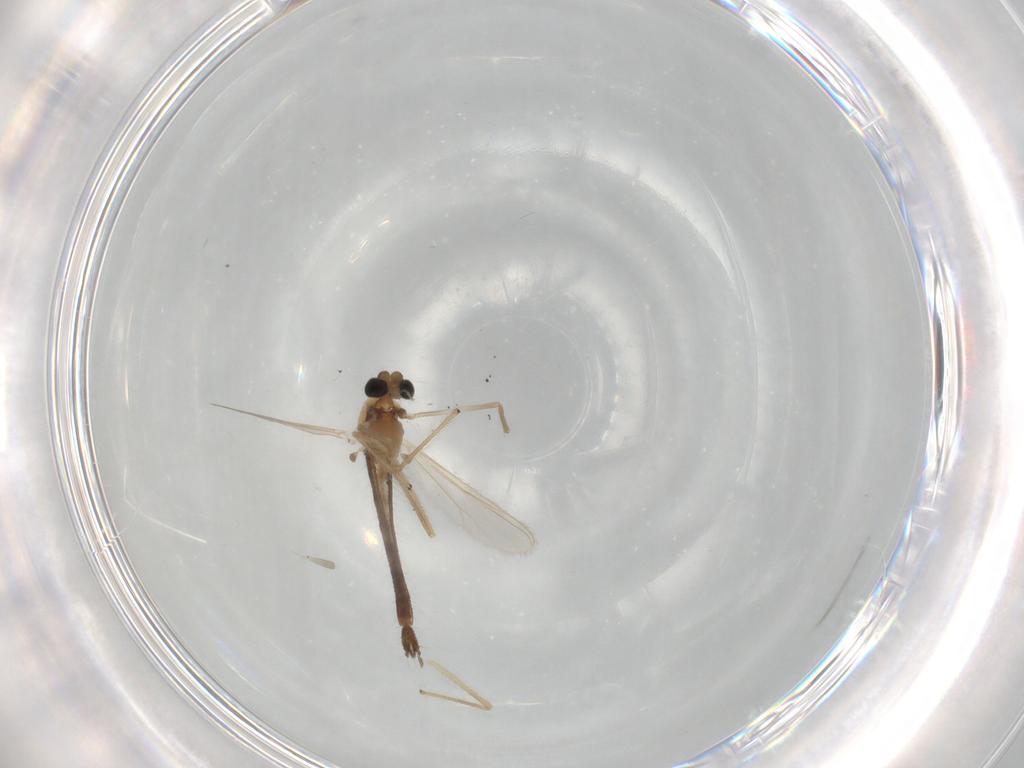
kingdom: Animalia
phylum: Arthropoda
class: Insecta
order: Diptera
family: Chironomidae
